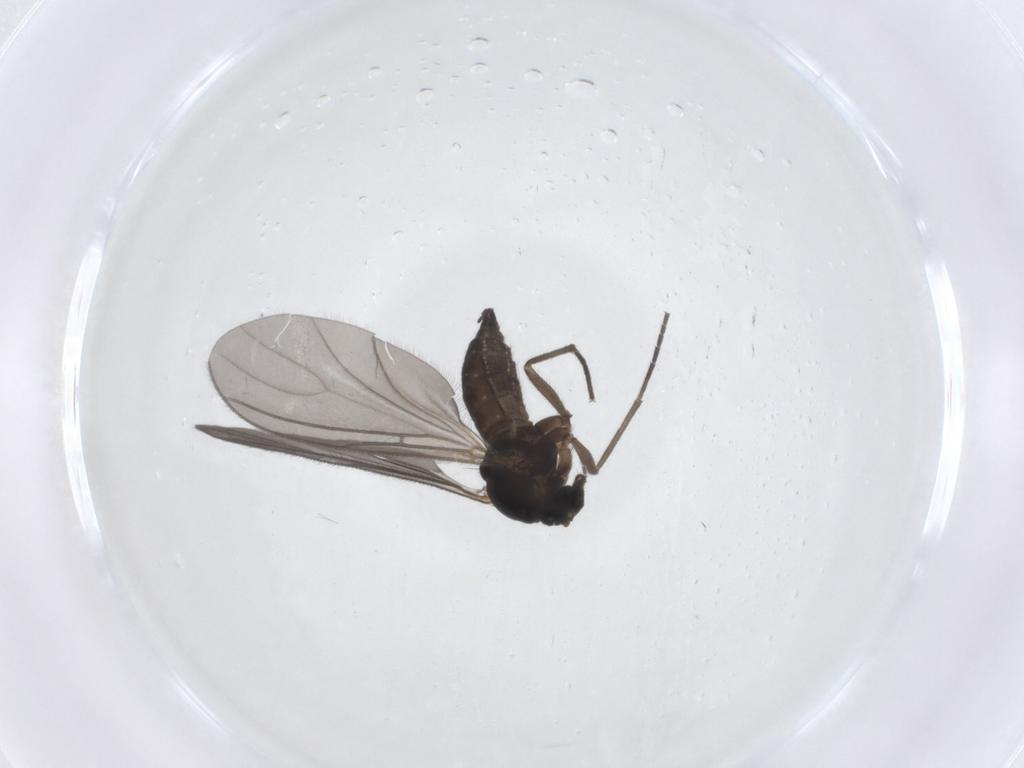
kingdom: Animalia
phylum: Arthropoda
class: Insecta
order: Diptera
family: Sciaridae
